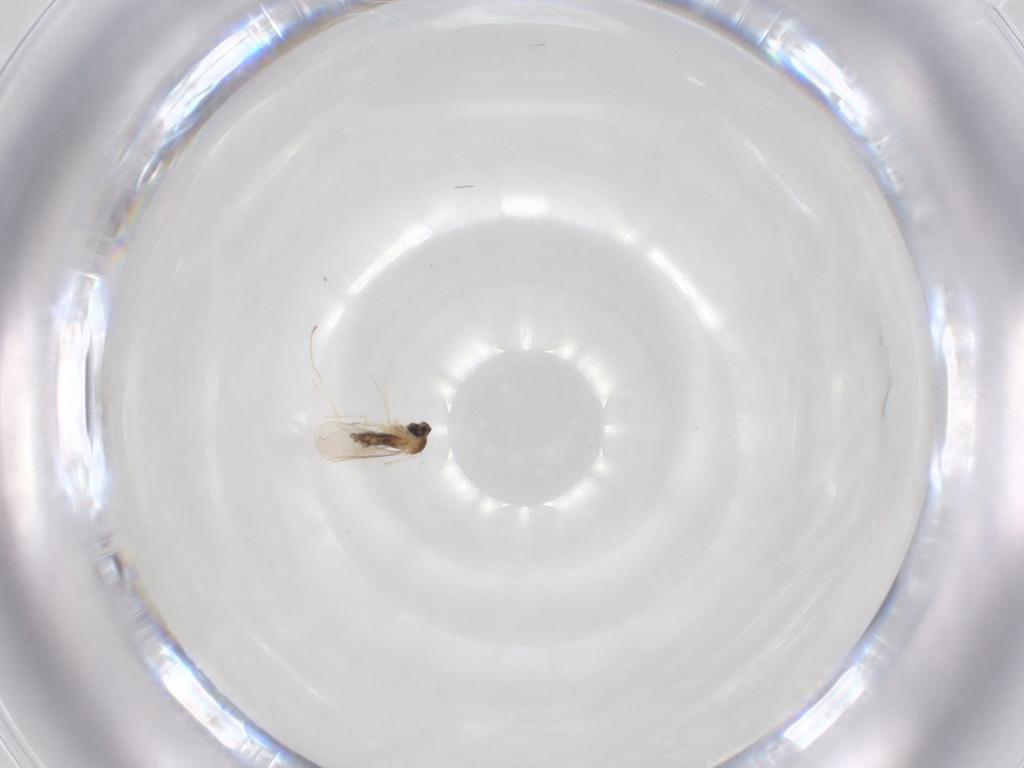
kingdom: Animalia
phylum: Arthropoda
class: Insecta
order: Diptera
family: Cecidomyiidae
